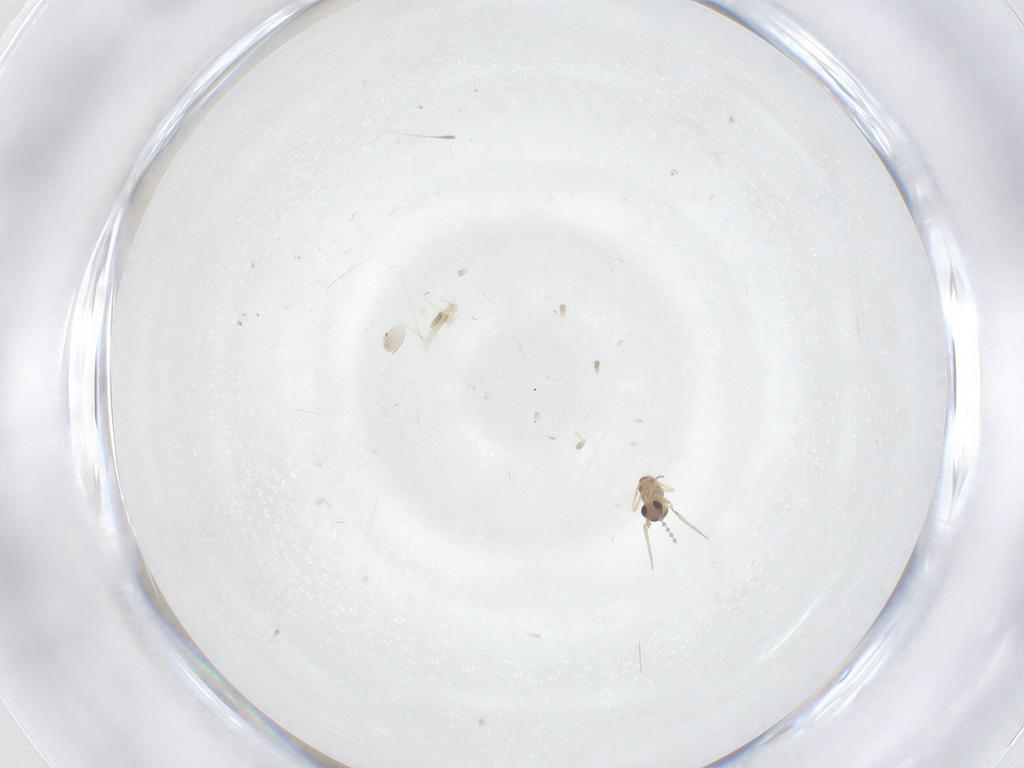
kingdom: Animalia
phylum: Arthropoda
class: Insecta
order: Diptera
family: Cecidomyiidae
